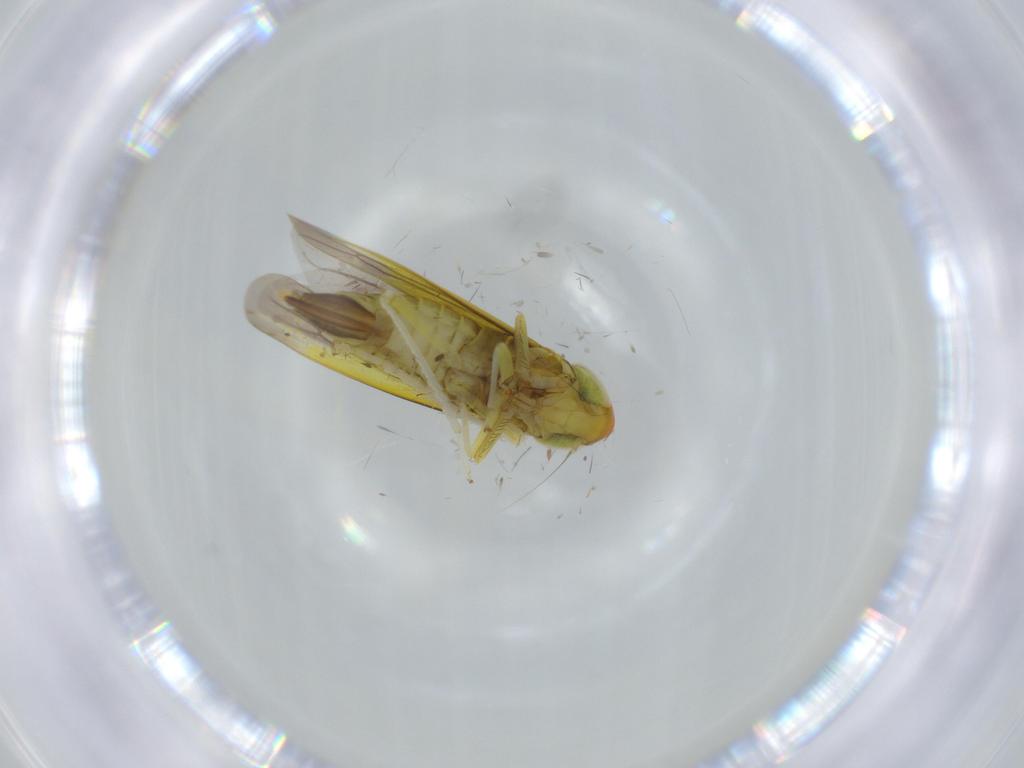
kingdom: Animalia
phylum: Arthropoda
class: Insecta
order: Hemiptera
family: Cicadellidae
